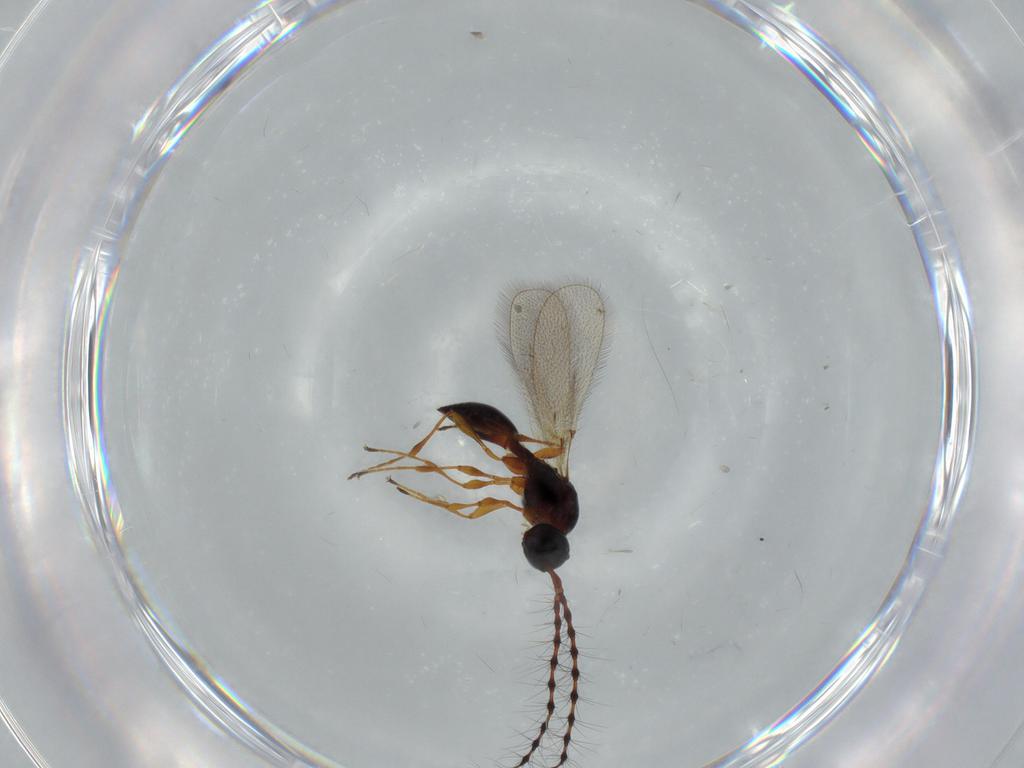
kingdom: Animalia
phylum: Arthropoda
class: Insecta
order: Hymenoptera
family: Diapriidae
